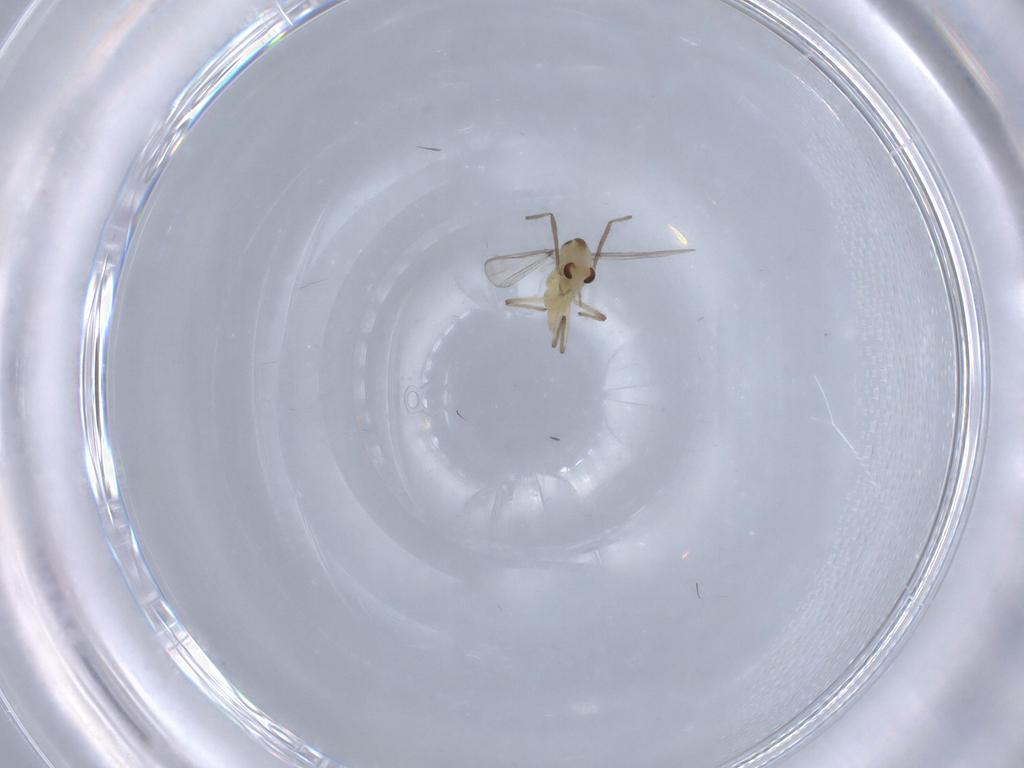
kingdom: Animalia
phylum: Arthropoda
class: Insecta
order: Diptera
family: Chironomidae
